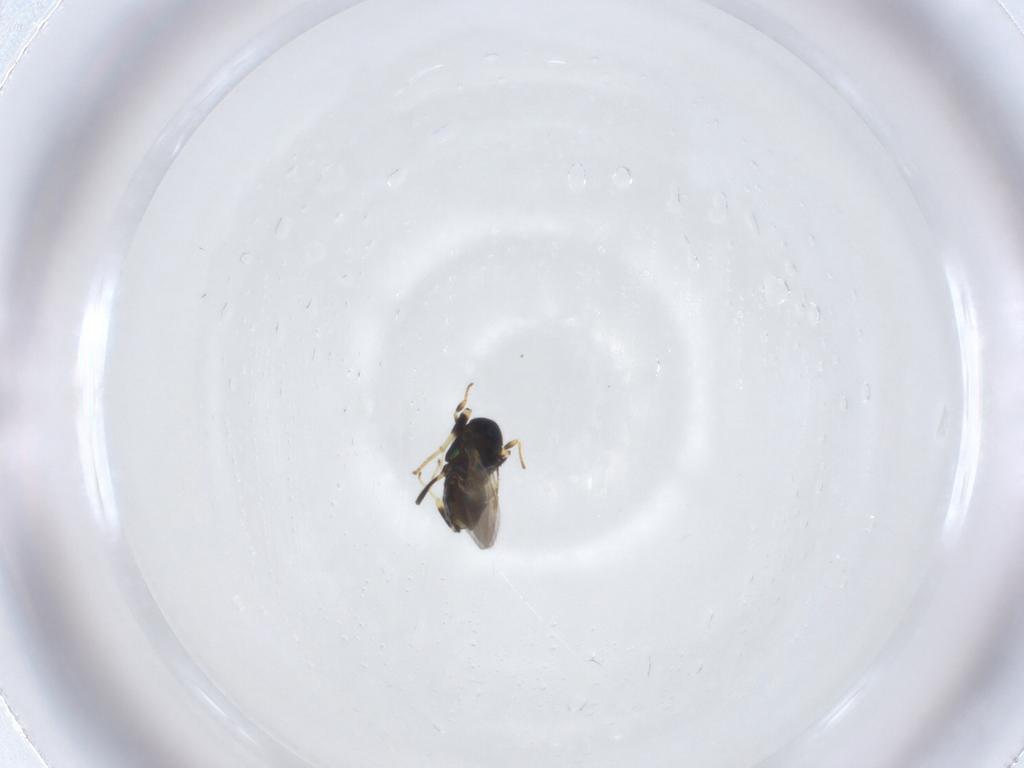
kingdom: Animalia
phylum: Arthropoda
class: Insecta
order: Hymenoptera
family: Encyrtidae
